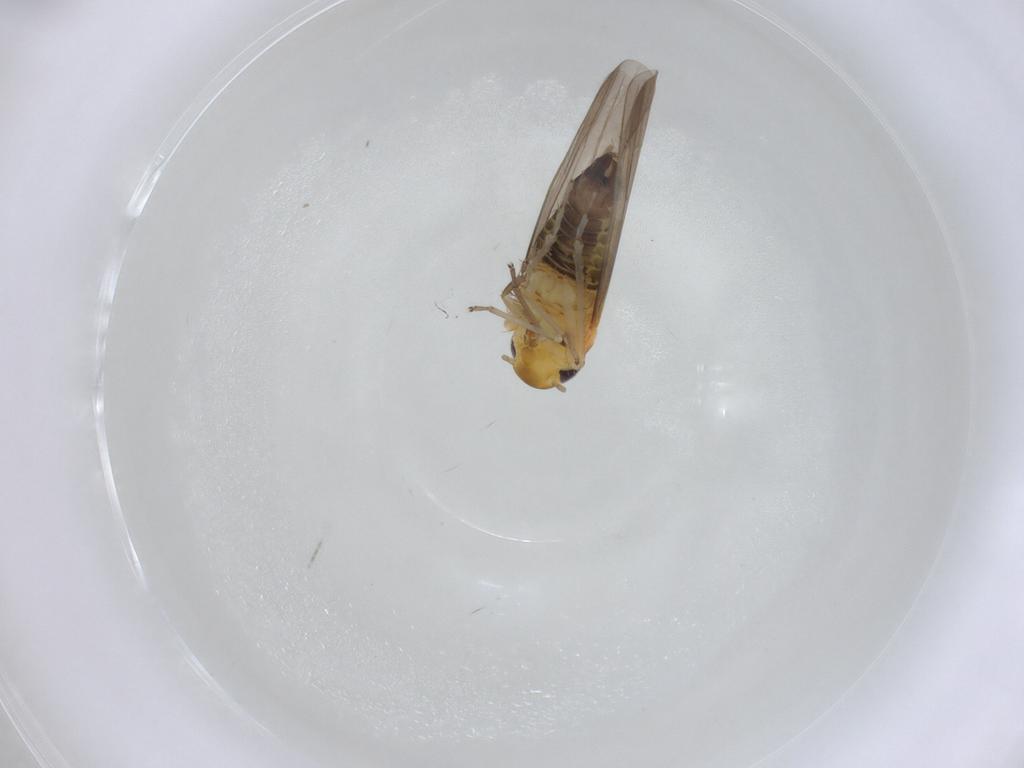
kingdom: Animalia
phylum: Arthropoda
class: Insecta
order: Hemiptera
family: Cicadellidae
